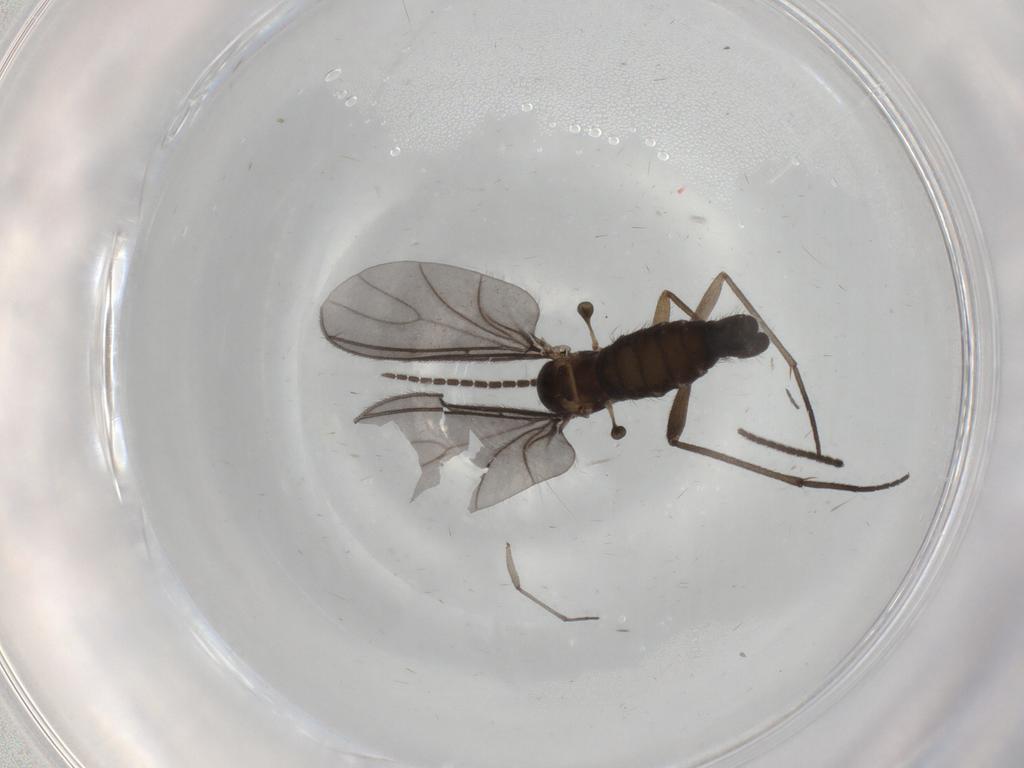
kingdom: Animalia
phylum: Arthropoda
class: Insecta
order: Diptera
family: Sciaridae
